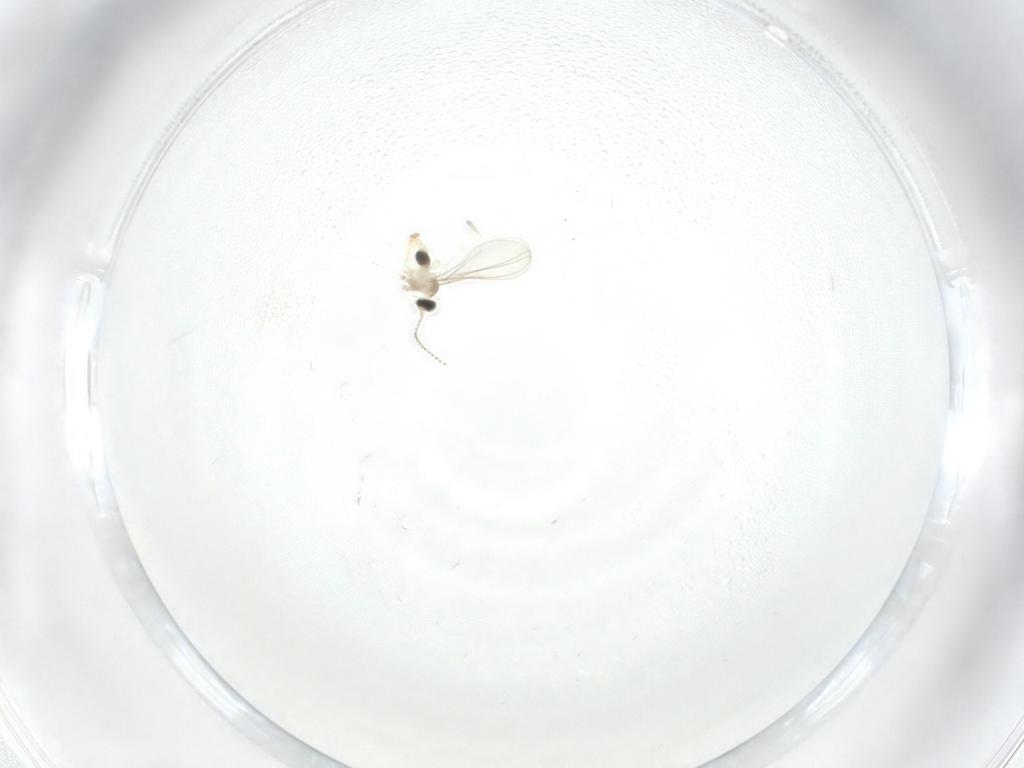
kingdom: Animalia
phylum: Arthropoda
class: Insecta
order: Diptera
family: Cecidomyiidae
